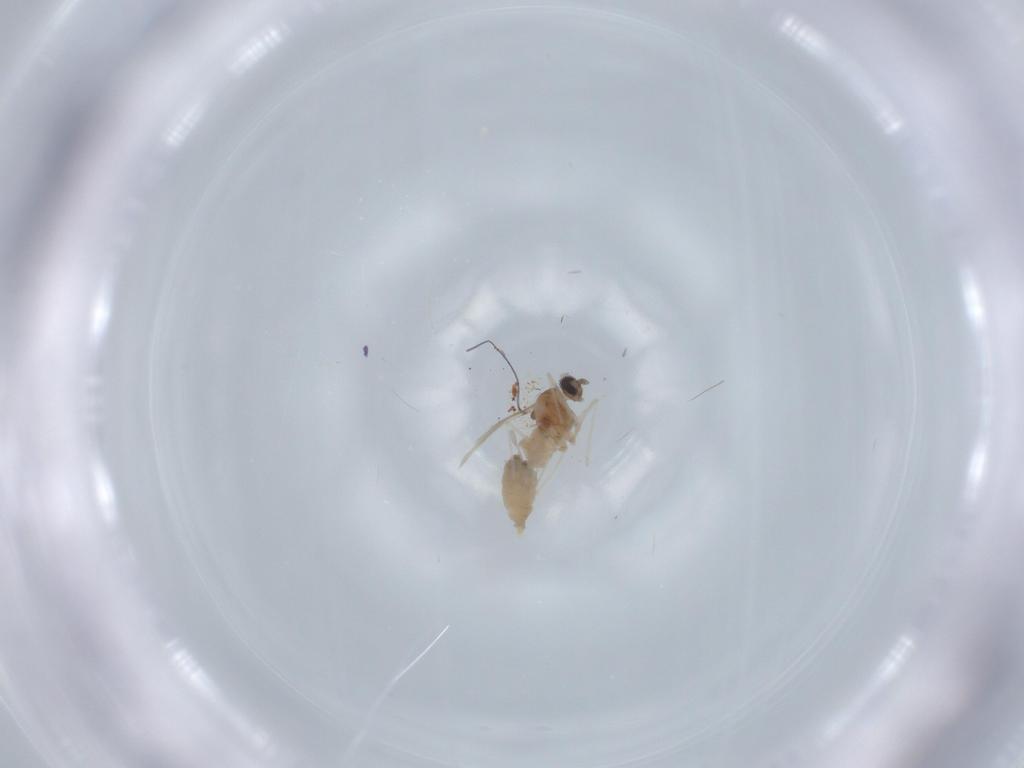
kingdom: Animalia
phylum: Arthropoda
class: Insecta
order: Diptera
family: Cecidomyiidae
